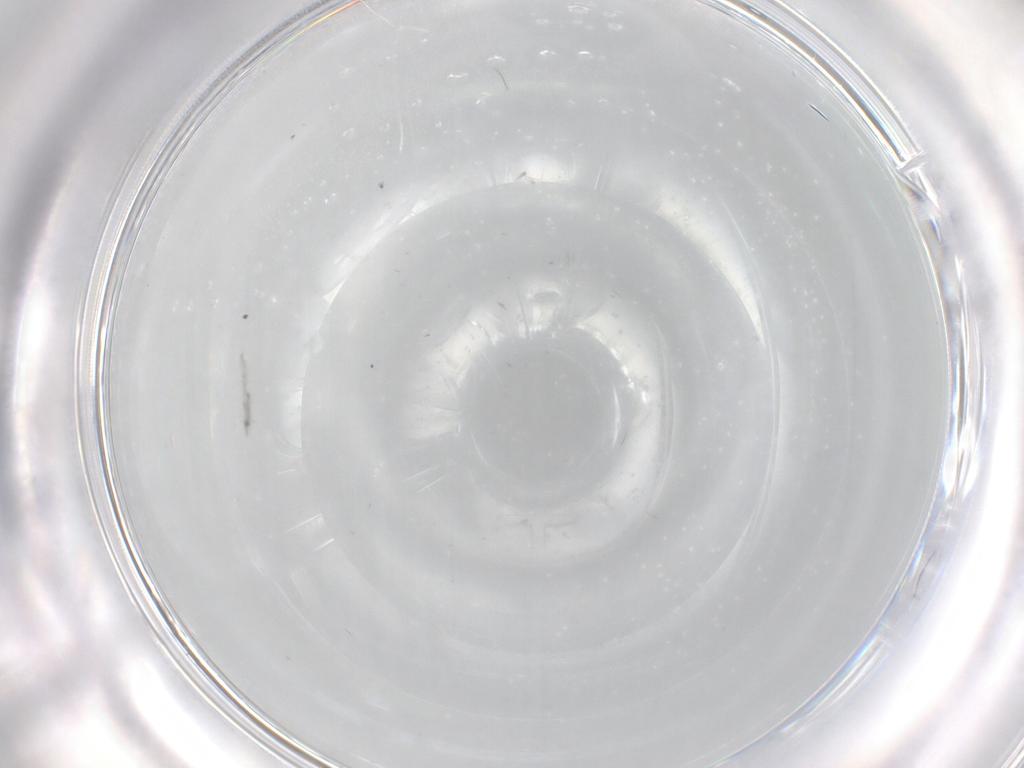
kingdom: Animalia
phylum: Arthropoda
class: Insecta
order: Diptera
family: Cecidomyiidae
